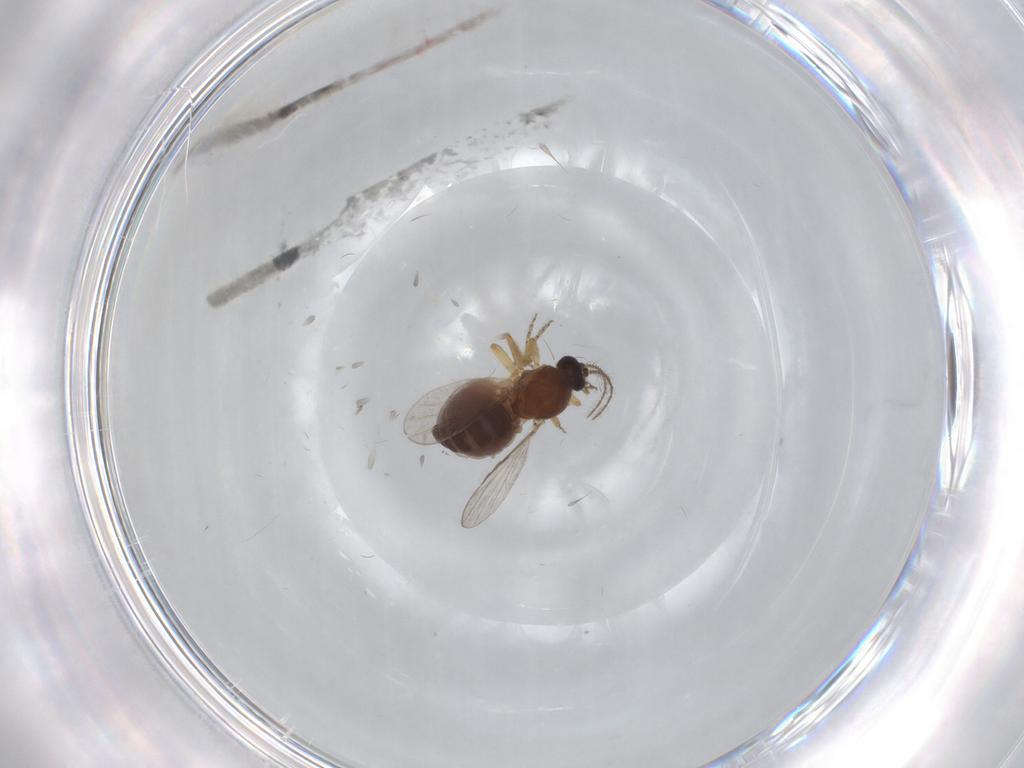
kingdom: Animalia
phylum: Arthropoda
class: Insecta
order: Diptera
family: Ceratopogonidae
